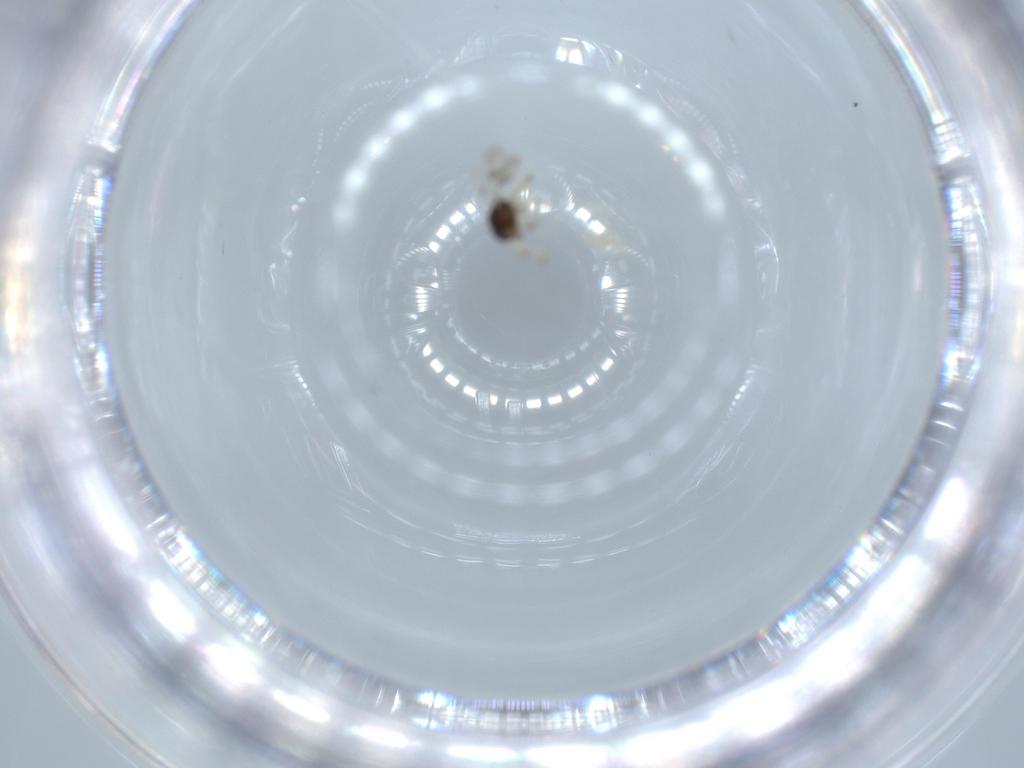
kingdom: Animalia
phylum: Arthropoda
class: Insecta
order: Hymenoptera
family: Scelionidae
